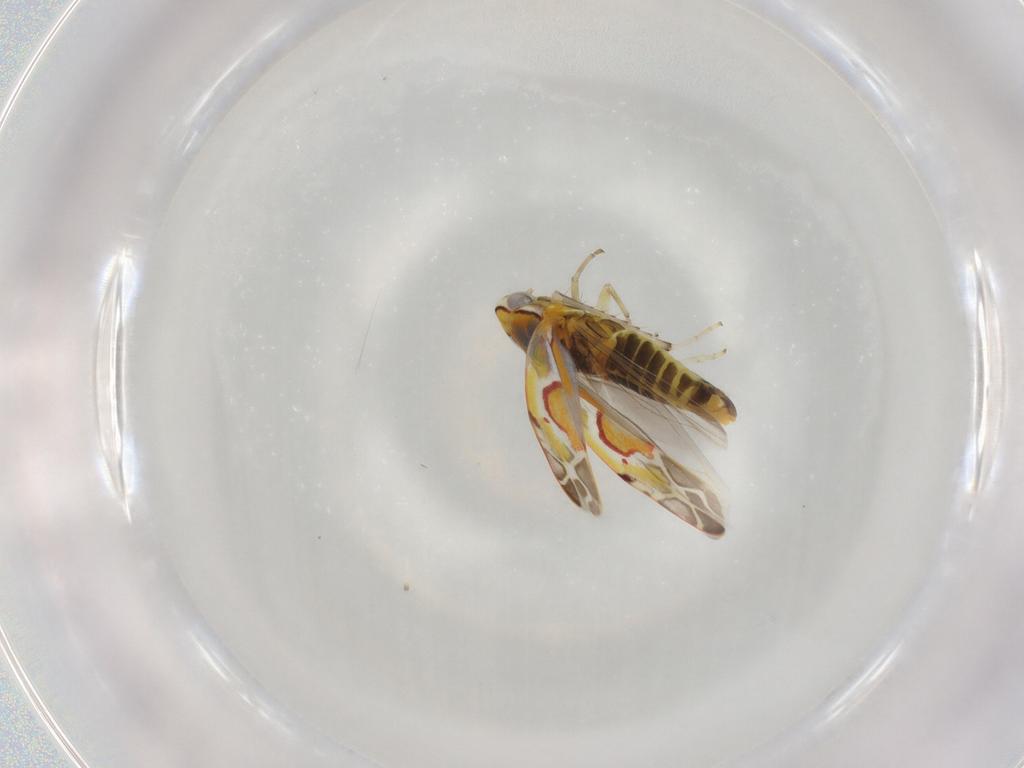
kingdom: Animalia
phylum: Arthropoda
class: Insecta
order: Hemiptera
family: Cicadellidae
